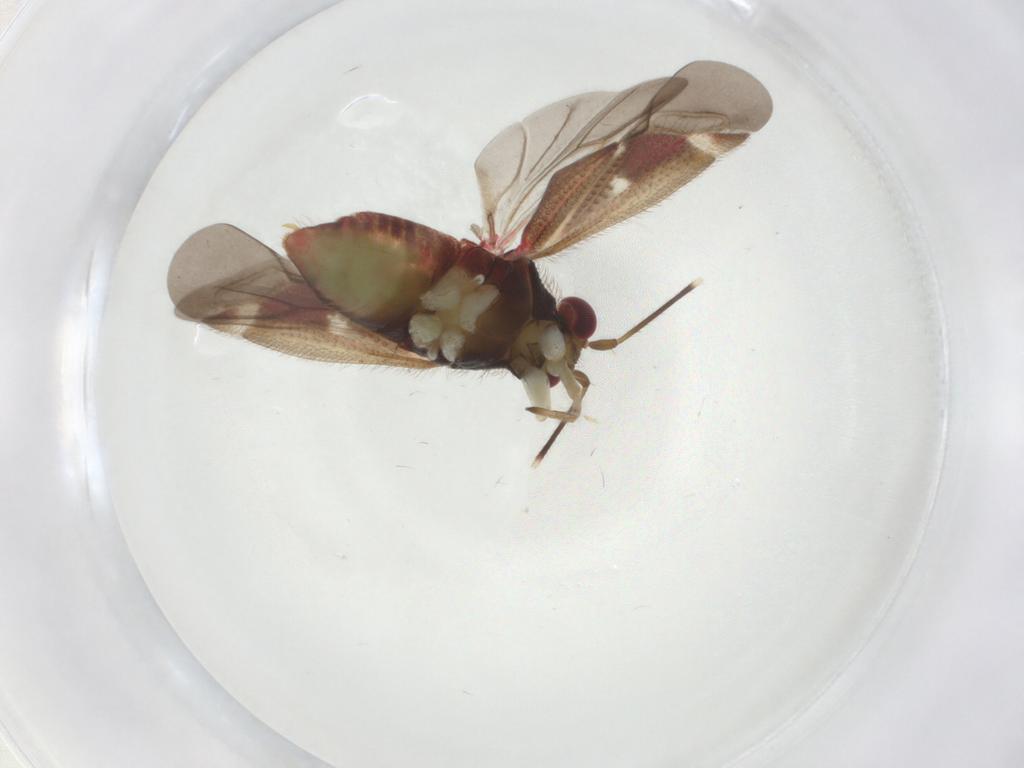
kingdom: Animalia
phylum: Arthropoda
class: Insecta
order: Hemiptera
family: Miridae
